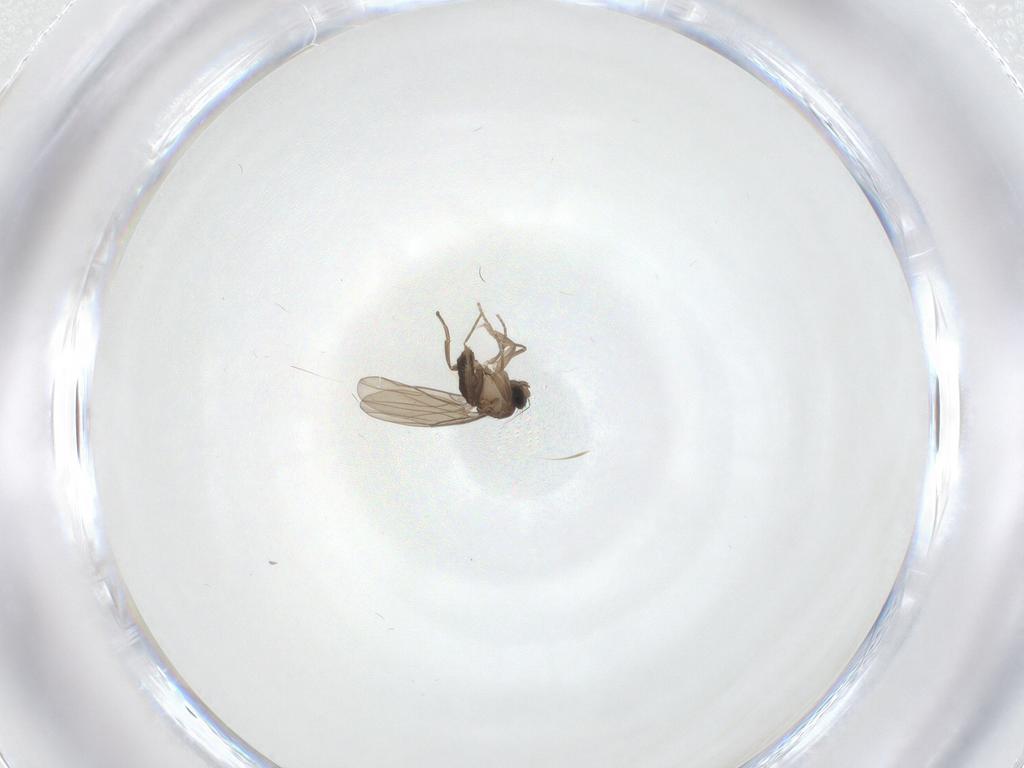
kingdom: Animalia
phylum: Arthropoda
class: Insecta
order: Diptera
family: Phoridae
